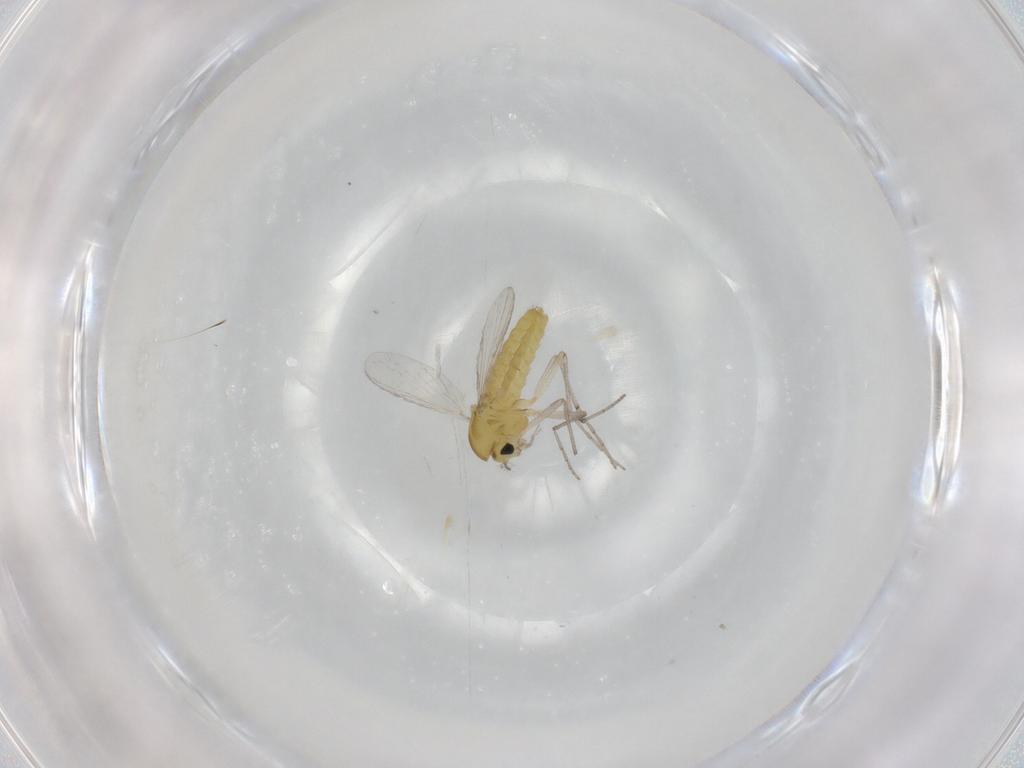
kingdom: Animalia
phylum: Arthropoda
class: Insecta
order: Diptera
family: Chironomidae
